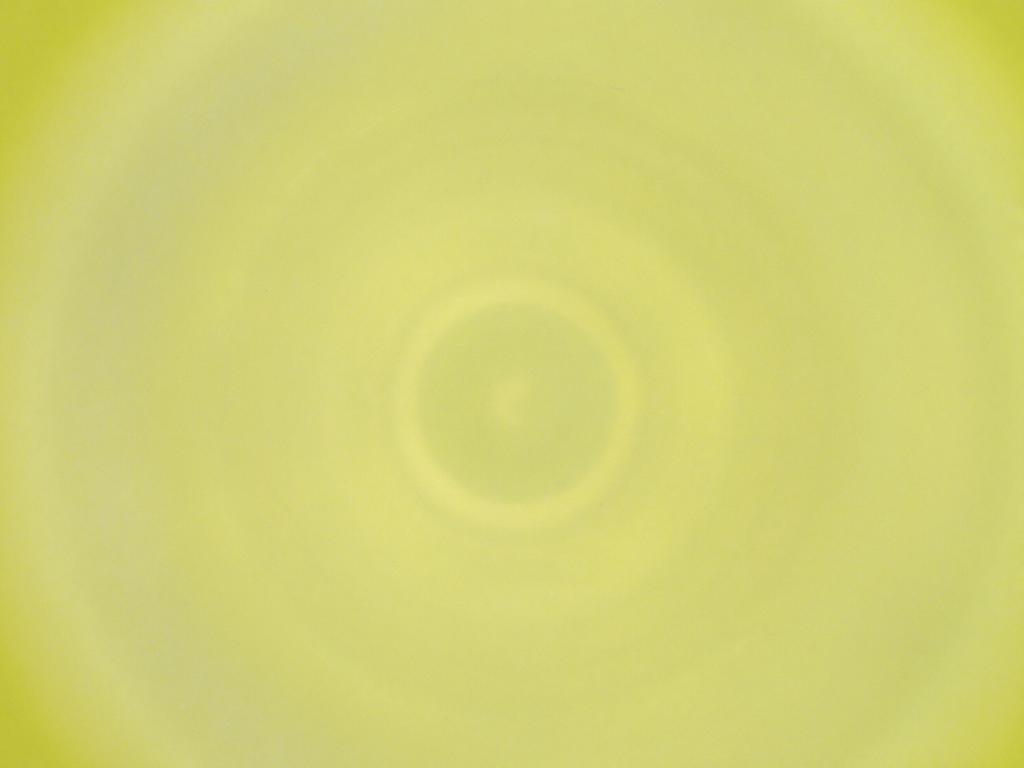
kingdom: Animalia
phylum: Arthropoda
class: Insecta
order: Diptera
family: Cecidomyiidae
